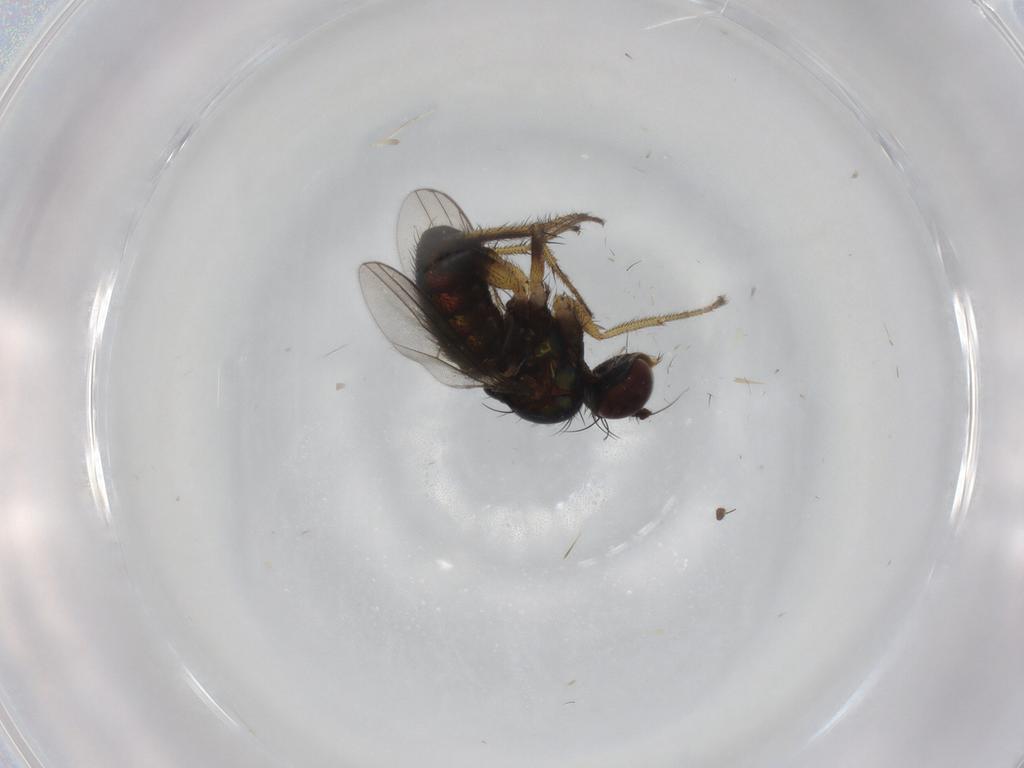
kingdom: Animalia
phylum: Arthropoda
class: Insecta
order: Diptera
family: Dolichopodidae
